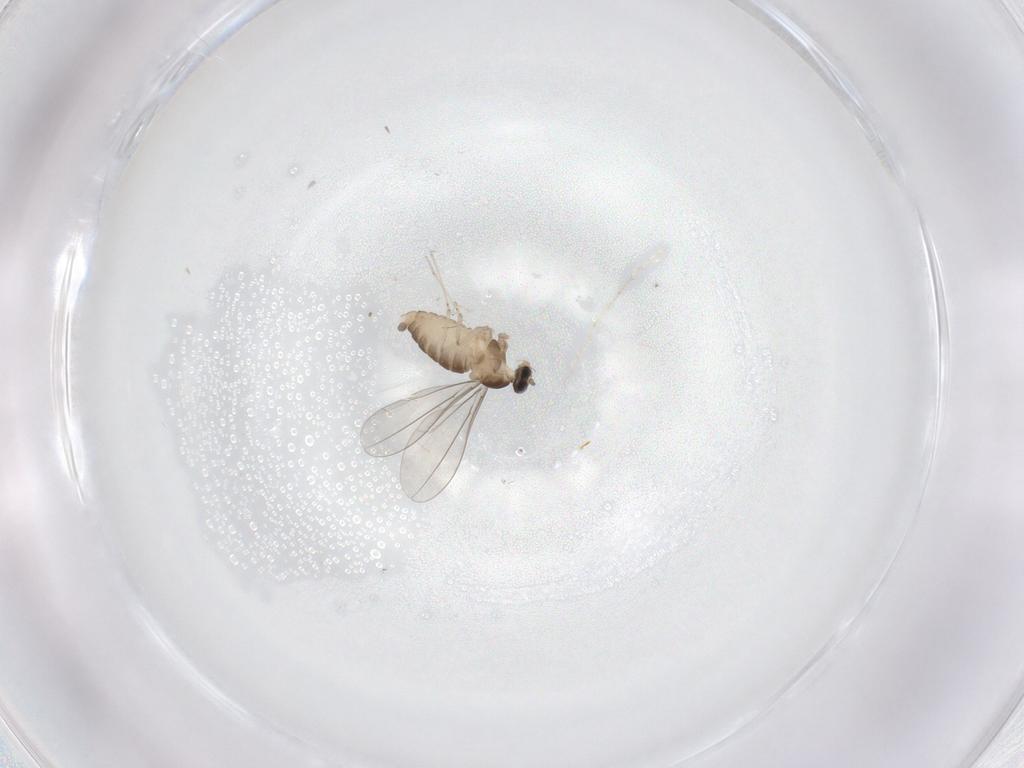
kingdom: Animalia
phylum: Arthropoda
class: Insecta
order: Diptera
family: Cecidomyiidae
